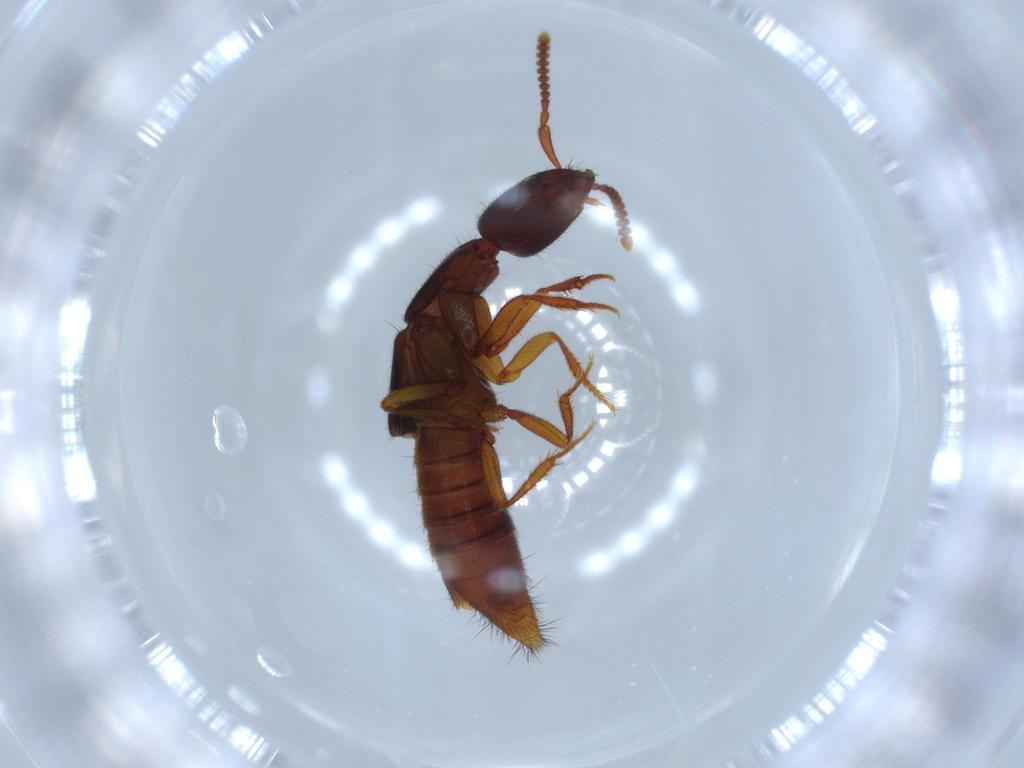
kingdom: Animalia
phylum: Arthropoda
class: Insecta
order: Coleoptera
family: Staphylinidae
